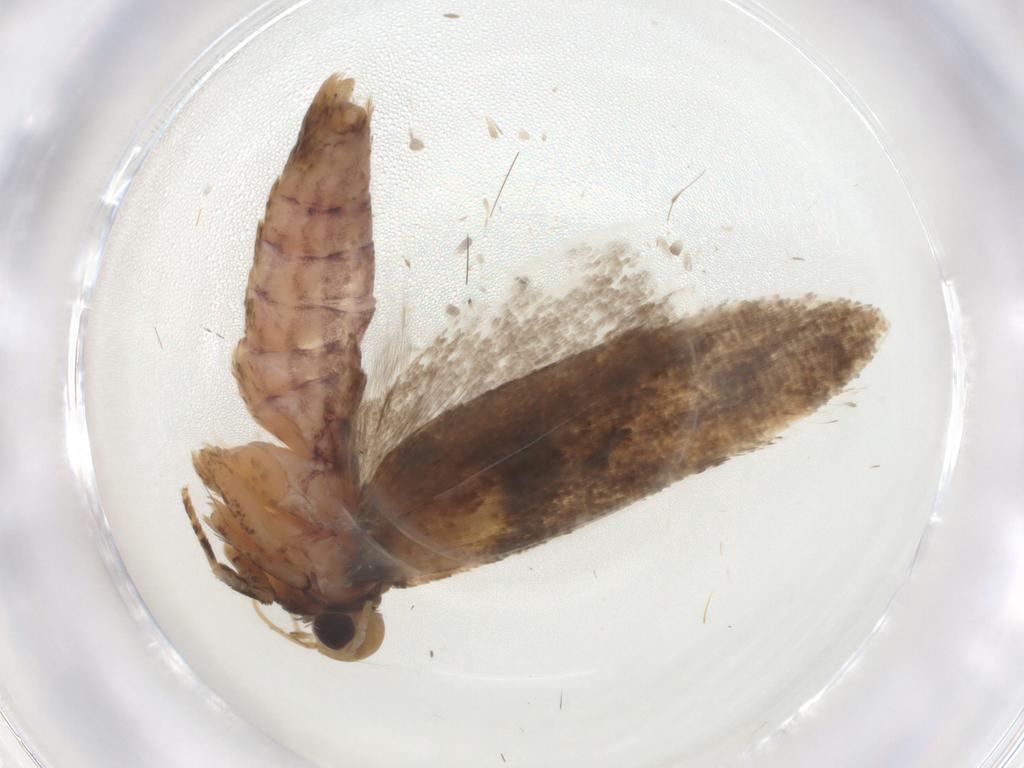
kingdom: Animalia
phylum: Arthropoda
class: Insecta
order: Lepidoptera
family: Gelechiidae
